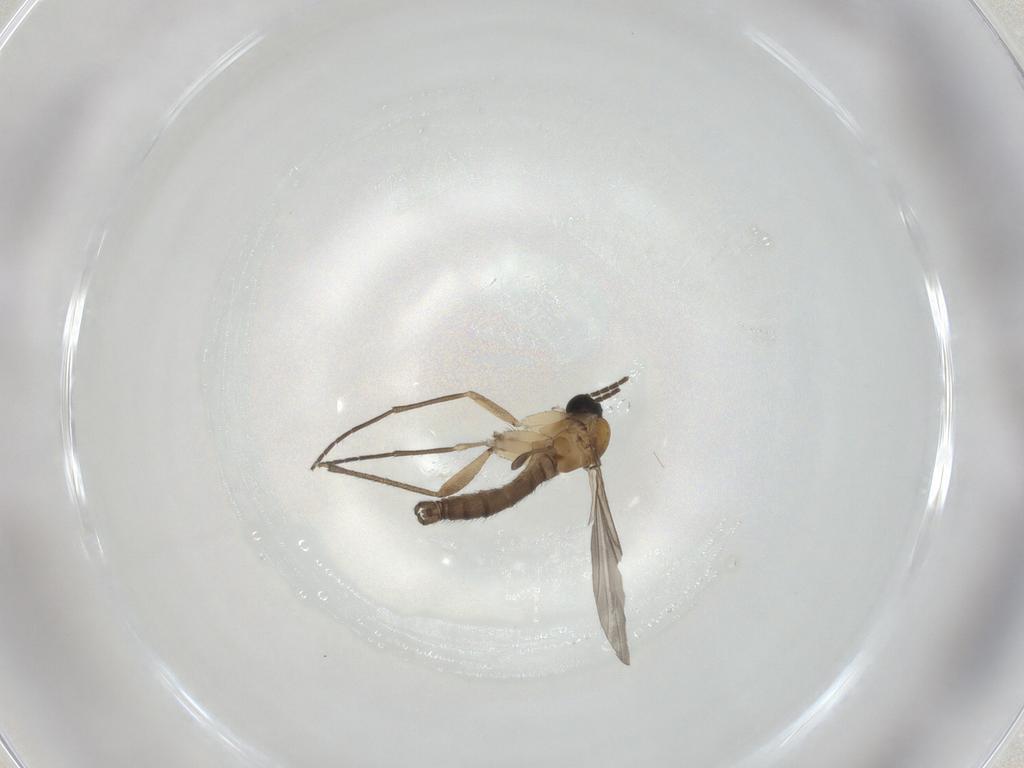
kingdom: Animalia
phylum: Arthropoda
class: Insecta
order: Diptera
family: Sciaridae
